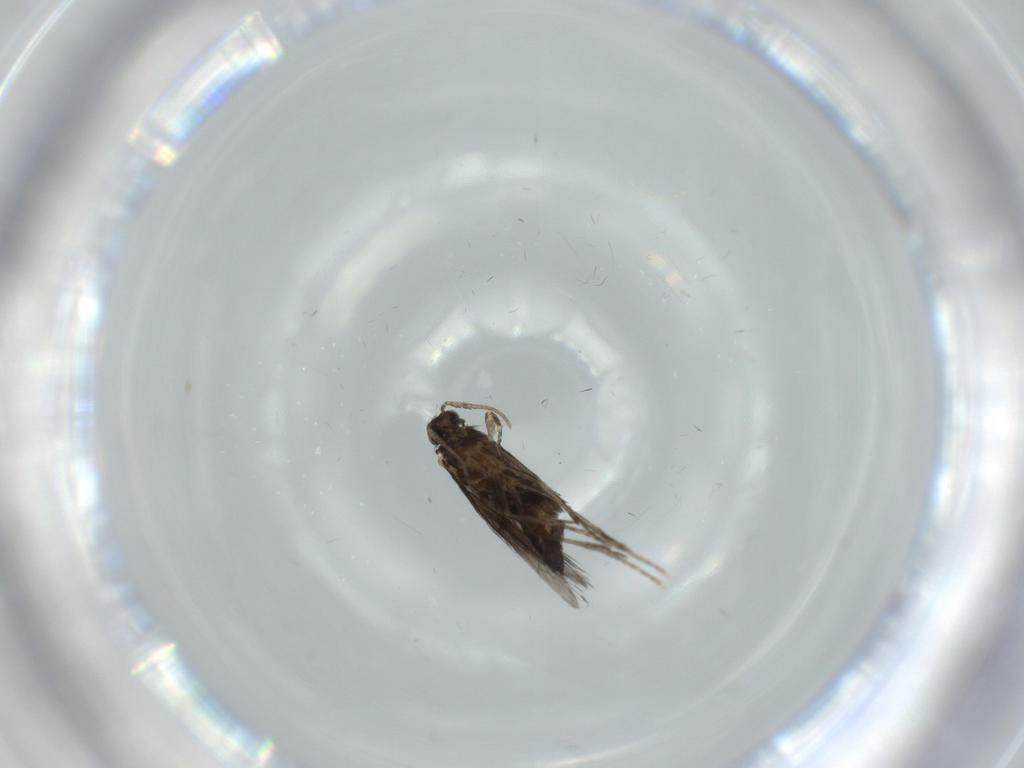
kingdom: Animalia
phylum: Arthropoda
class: Insecta
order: Trichoptera
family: Hydroptilidae
